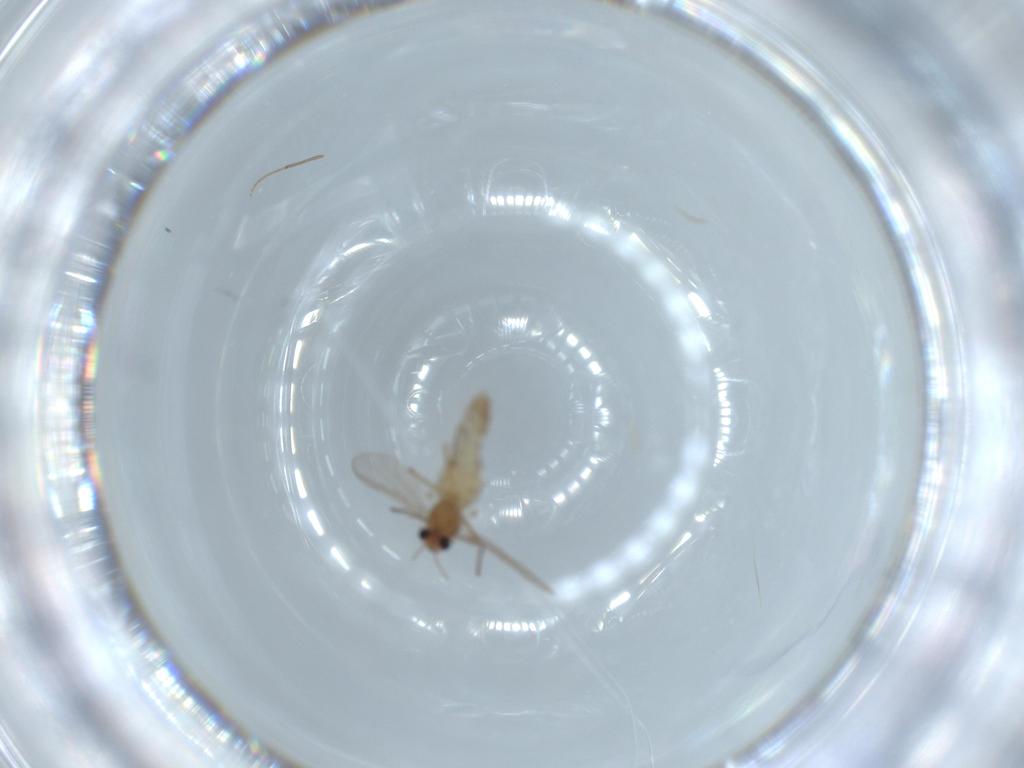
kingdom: Animalia
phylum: Arthropoda
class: Insecta
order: Diptera
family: Chironomidae
